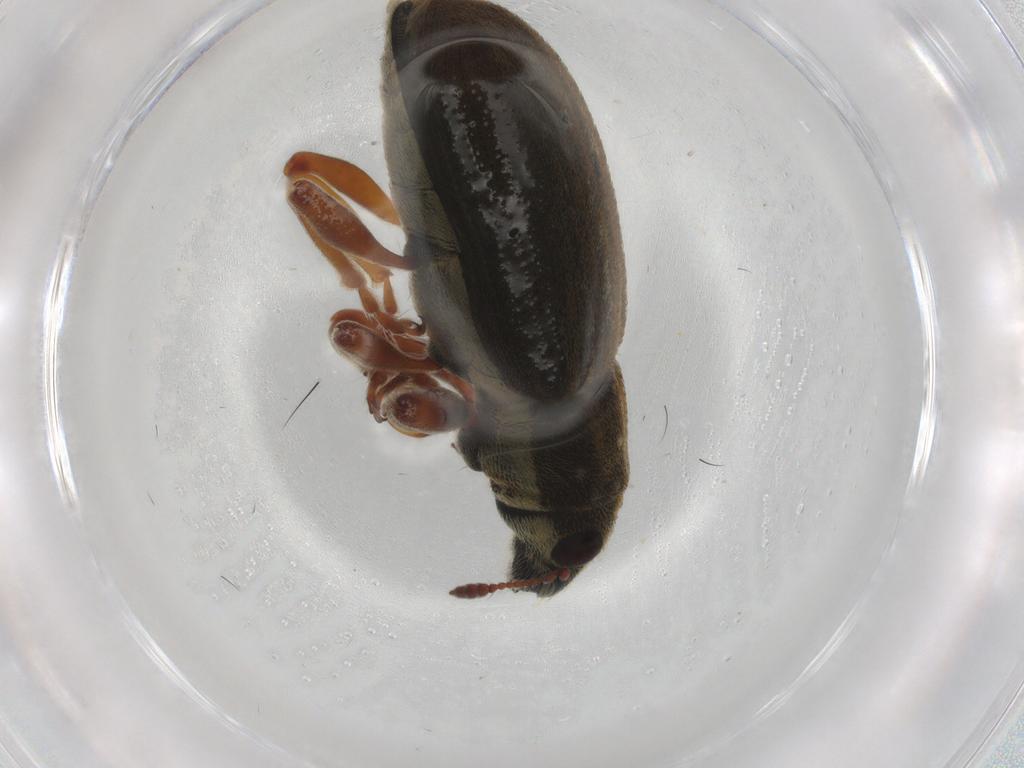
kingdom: Animalia
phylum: Arthropoda
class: Insecta
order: Coleoptera
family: Curculionidae
